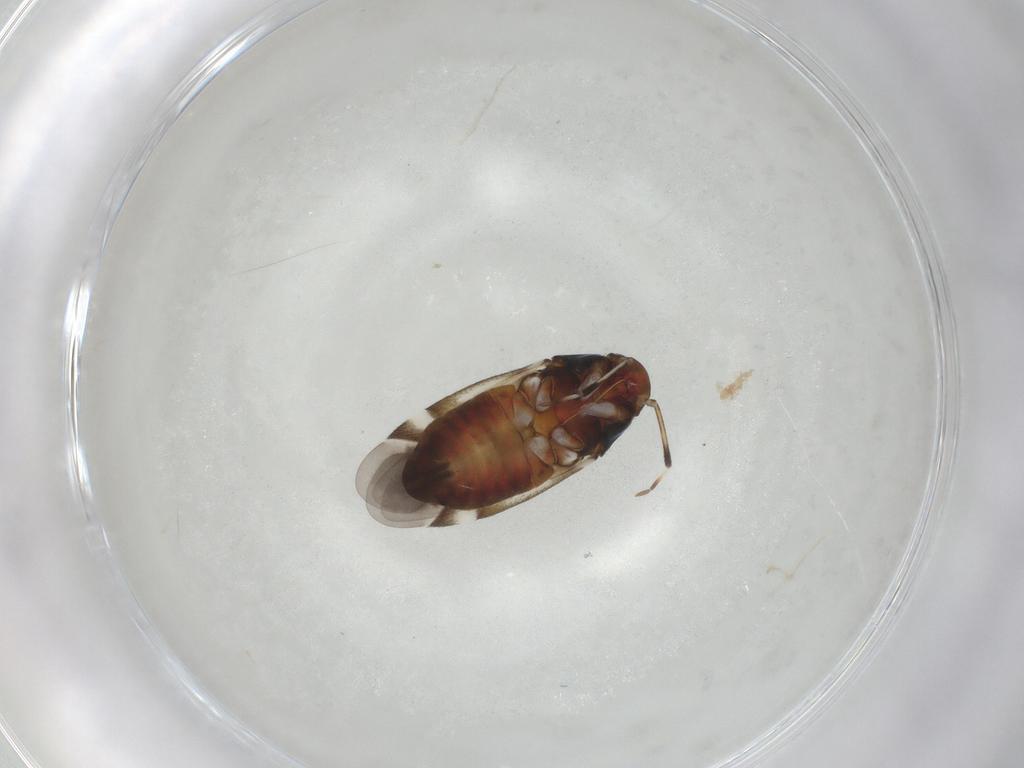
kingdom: Animalia
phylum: Arthropoda
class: Insecta
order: Hemiptera
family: Miridae
